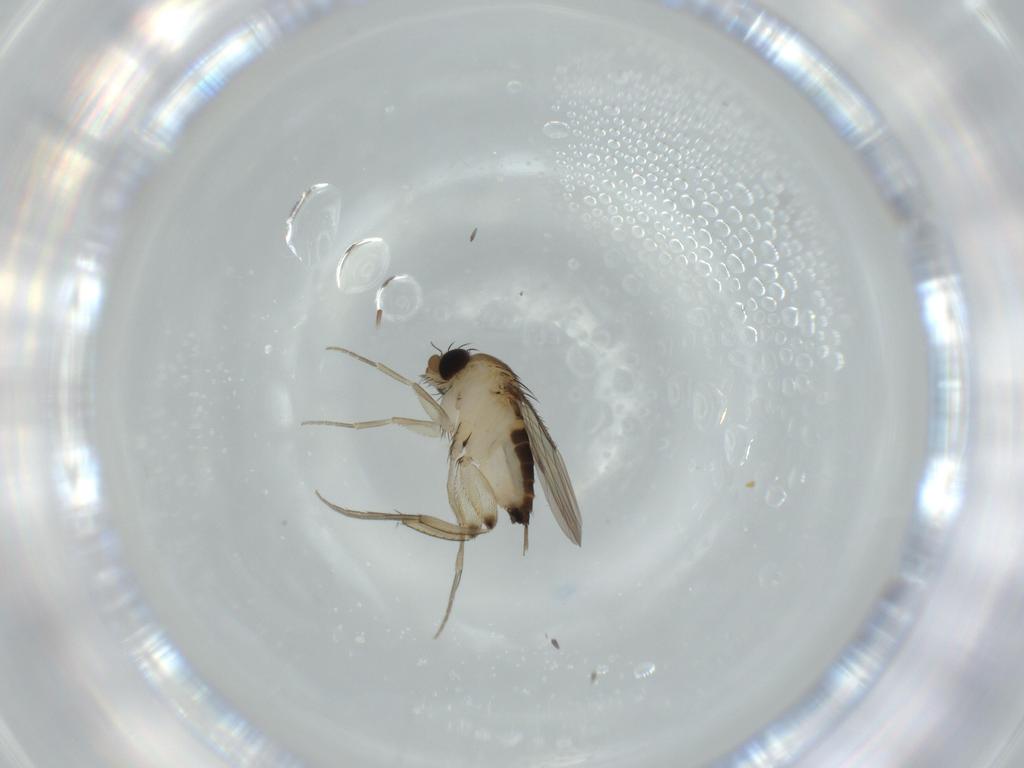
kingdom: Animalia
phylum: Arthropoda
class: Insecta
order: Diptera
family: Phoridae
